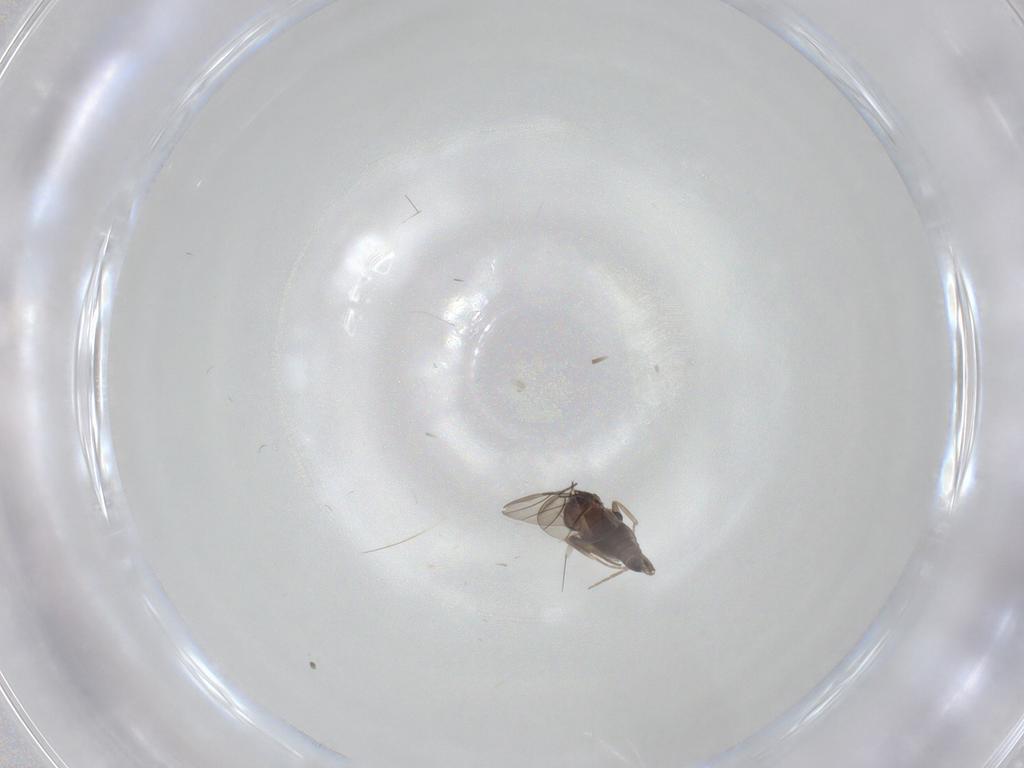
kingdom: Animalia
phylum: Arthropoda
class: Insecta
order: Diptera
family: Phoridae
